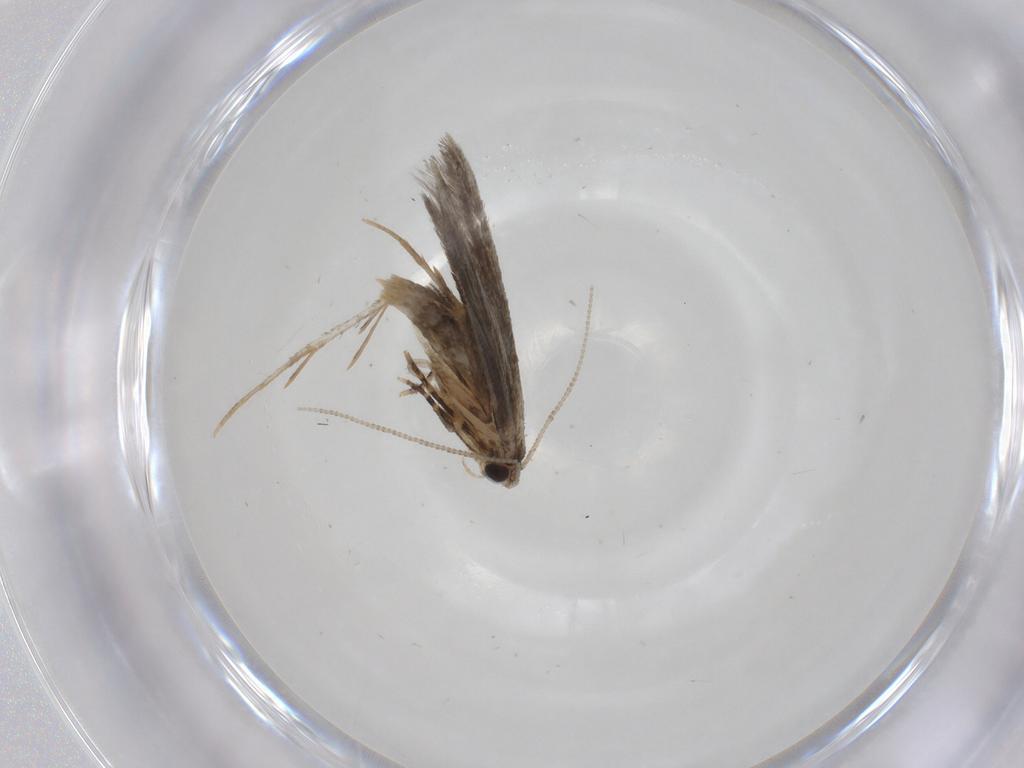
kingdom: Animalia
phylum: Arthropoda
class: Insecta
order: Lepidoptera
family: Tineidae
